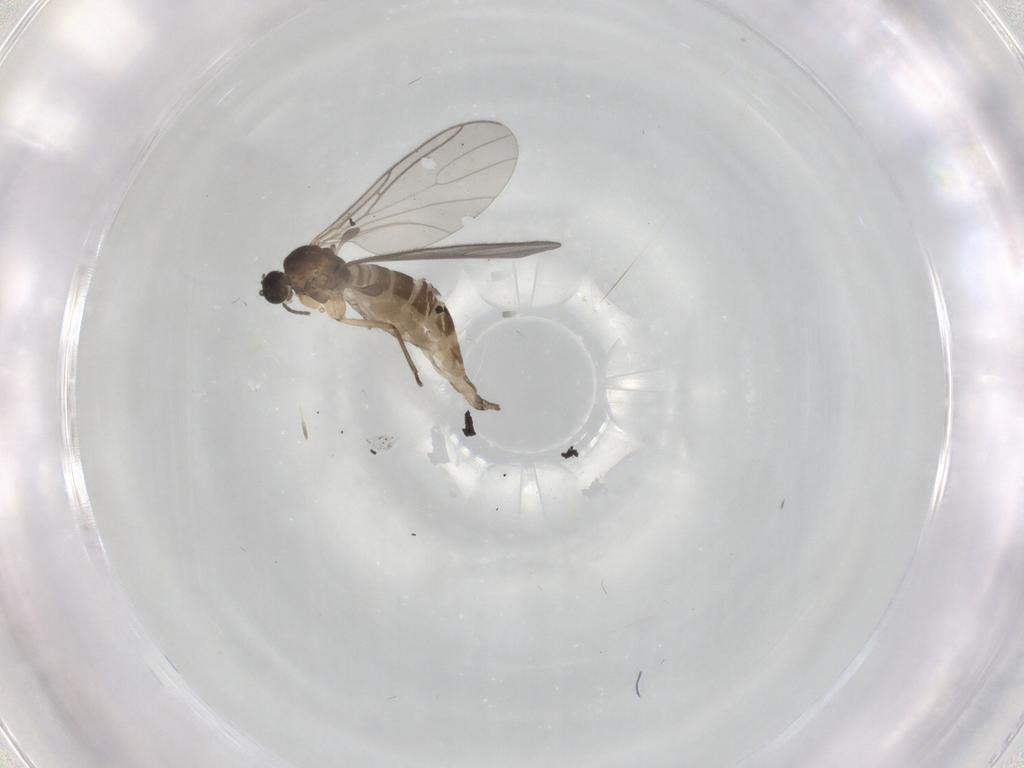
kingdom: Animalia
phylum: Arthropoda
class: Insecta
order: Diptera
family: Sciaridae
